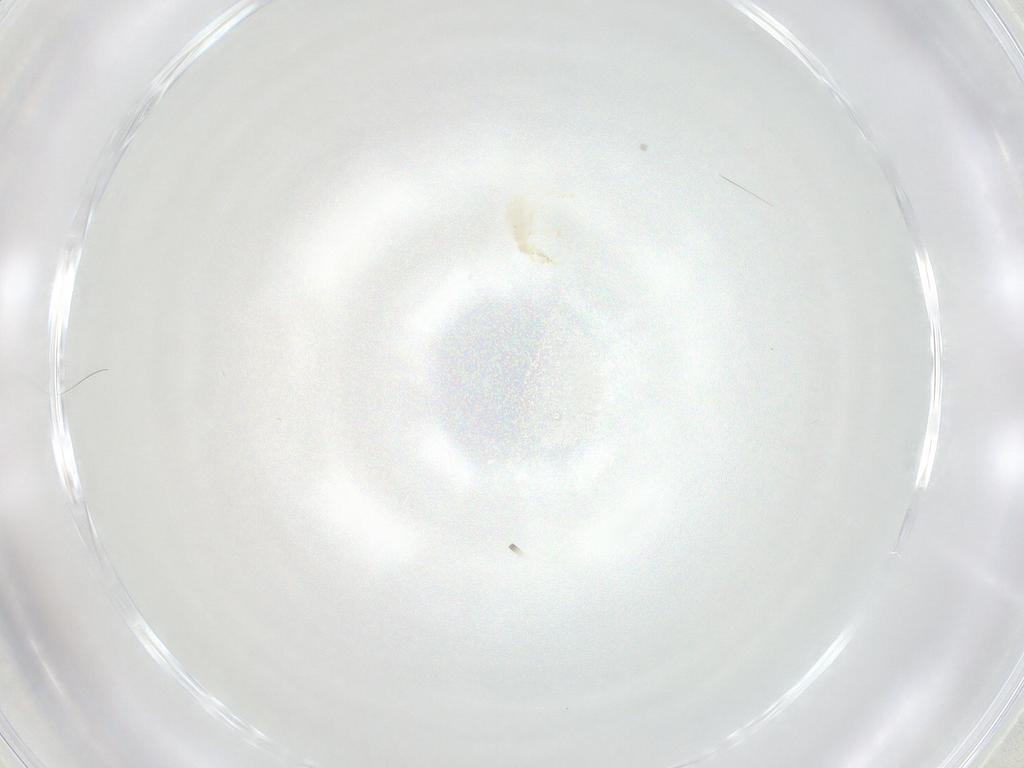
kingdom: Animalia
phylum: Arthropoda
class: Arachnida
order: Trombidiformes
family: Erythraeidae
